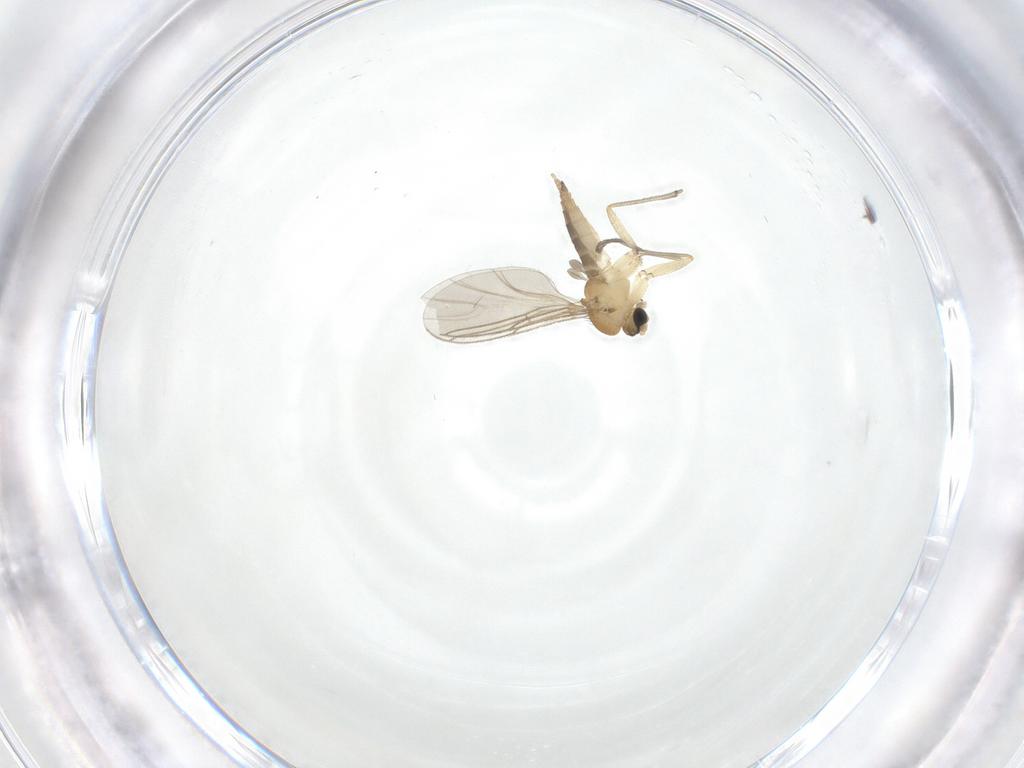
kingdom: Animalia
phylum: Arthropoda
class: Insecta
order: Diptera
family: Sciaridae
